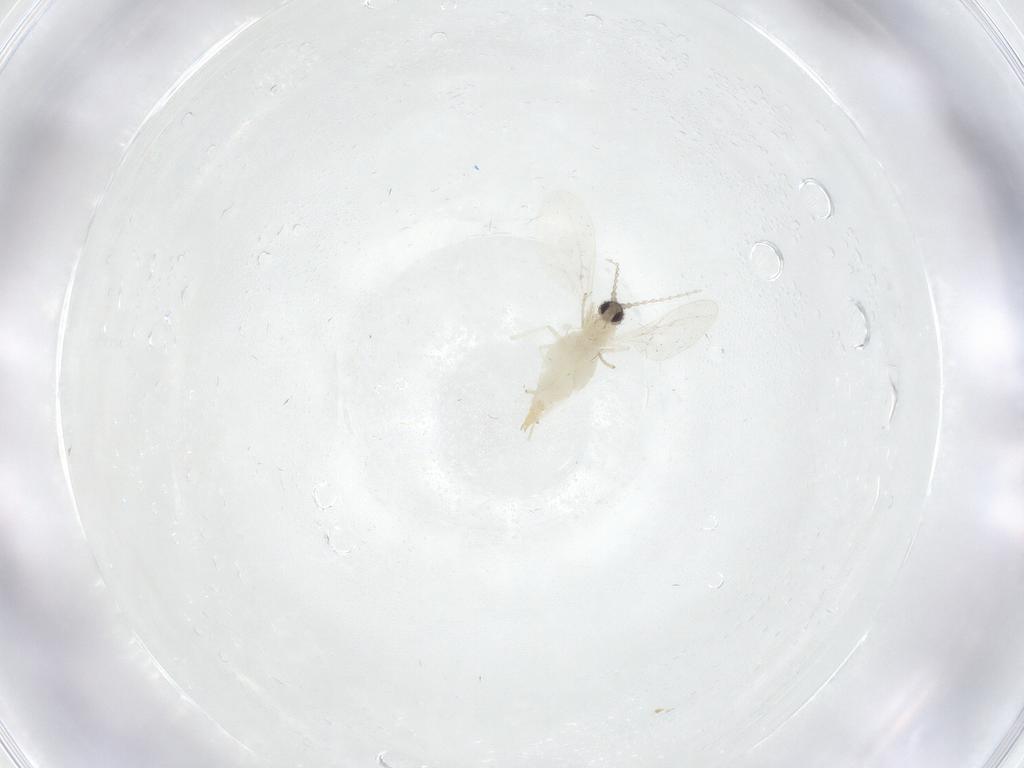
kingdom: Animalia
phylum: Arthropoda
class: Insecta
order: Diptera
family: Cecidomyiidae
